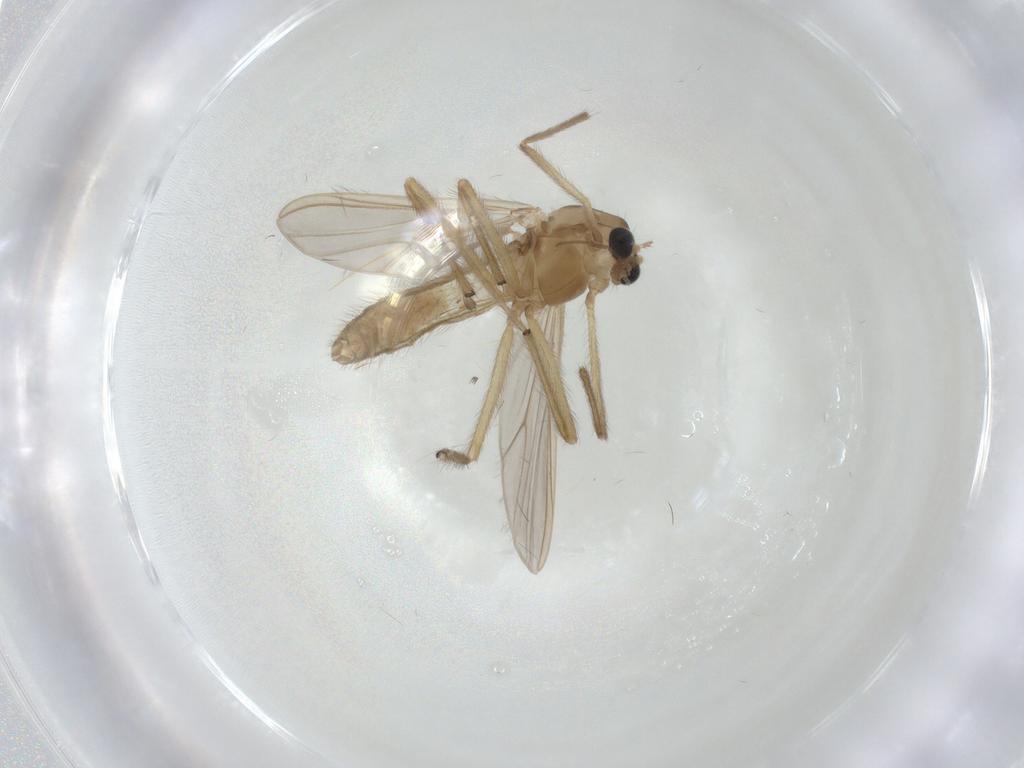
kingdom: Animalia
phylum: Arthropoda
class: Insecta
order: Diptera
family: Chironomidae
